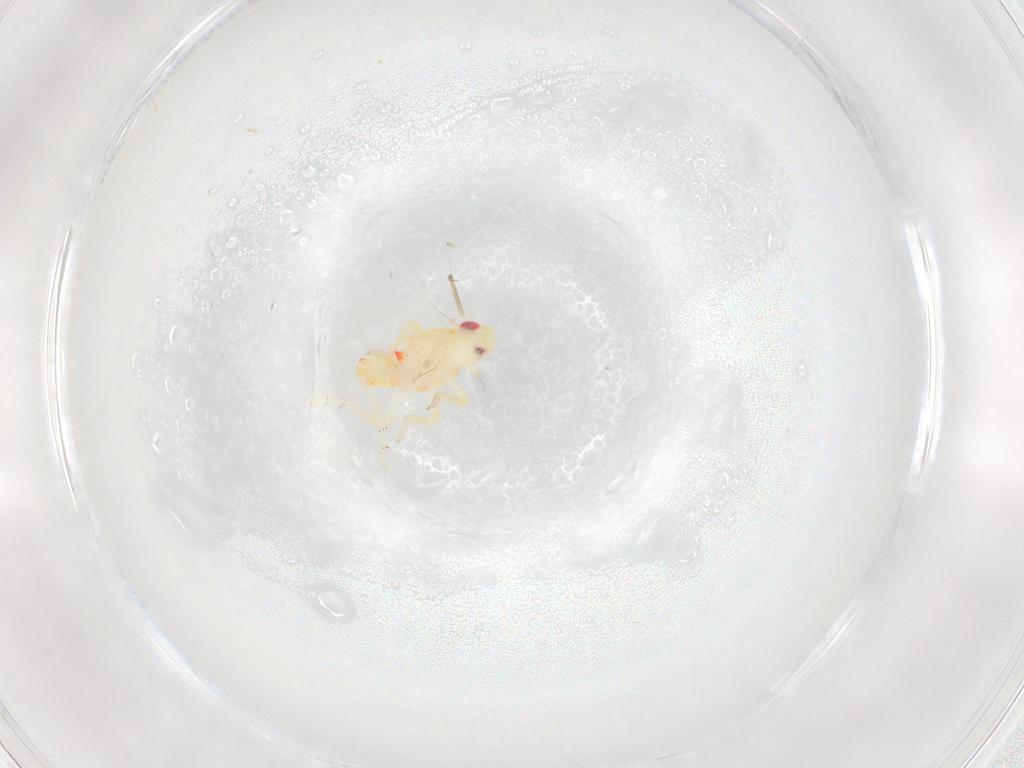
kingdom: Animalia
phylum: Arthropoda
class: Insecta
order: Hemiptera
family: Tropiduchidae
